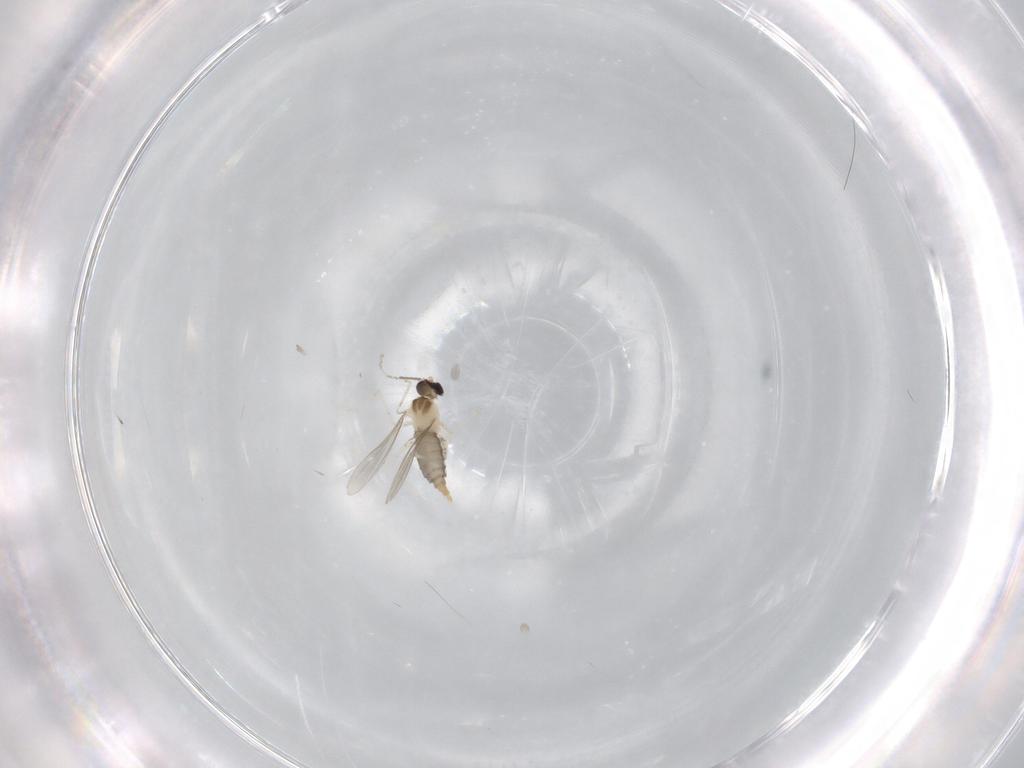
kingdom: Animalia
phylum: Arthropoda
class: Insecta
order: Diptera
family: Cecidomyiidae
